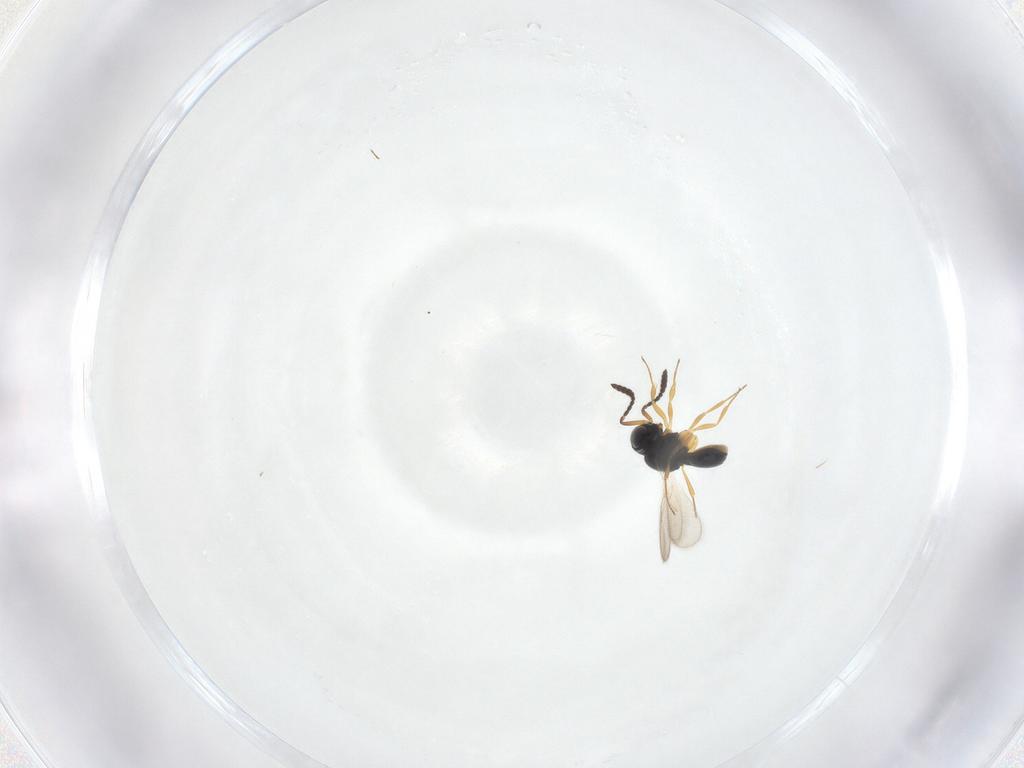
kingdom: Animalia
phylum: Arthropoda
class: Insecta
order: Hymenoptera
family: Scelionidae
